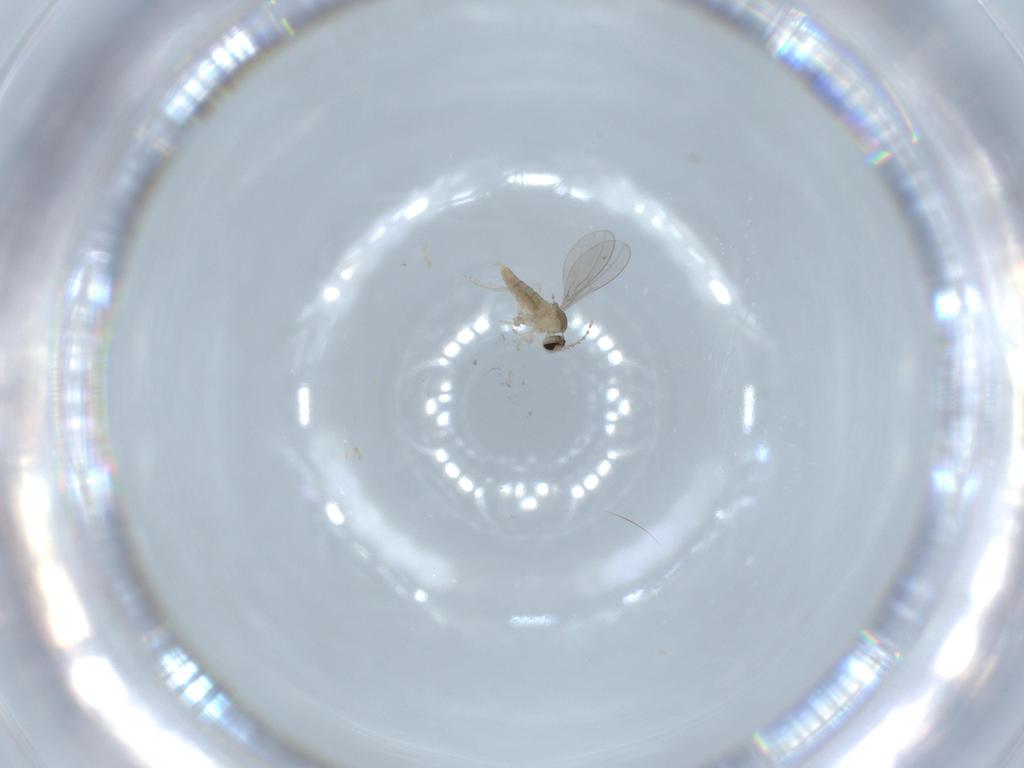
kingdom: Animalia
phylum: Arthropoda
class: Insecta
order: Diptera
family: Cecidomyiidae
